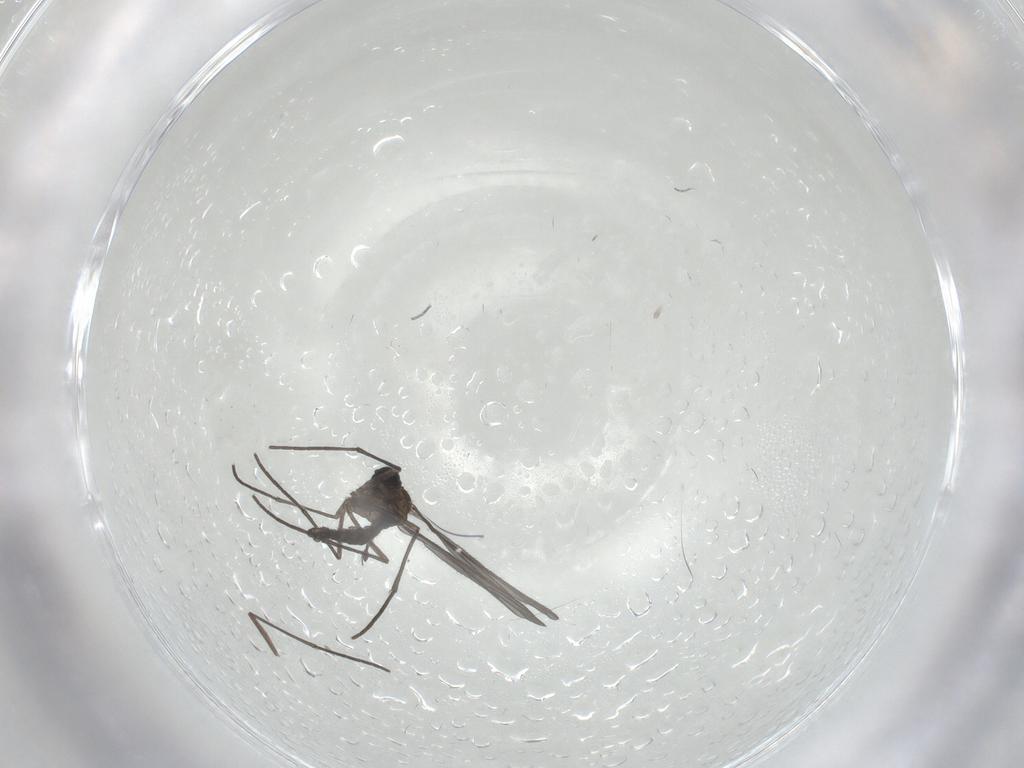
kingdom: Animalia
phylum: Arthropoda
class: Insecta
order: Diptera
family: Sciaridae
